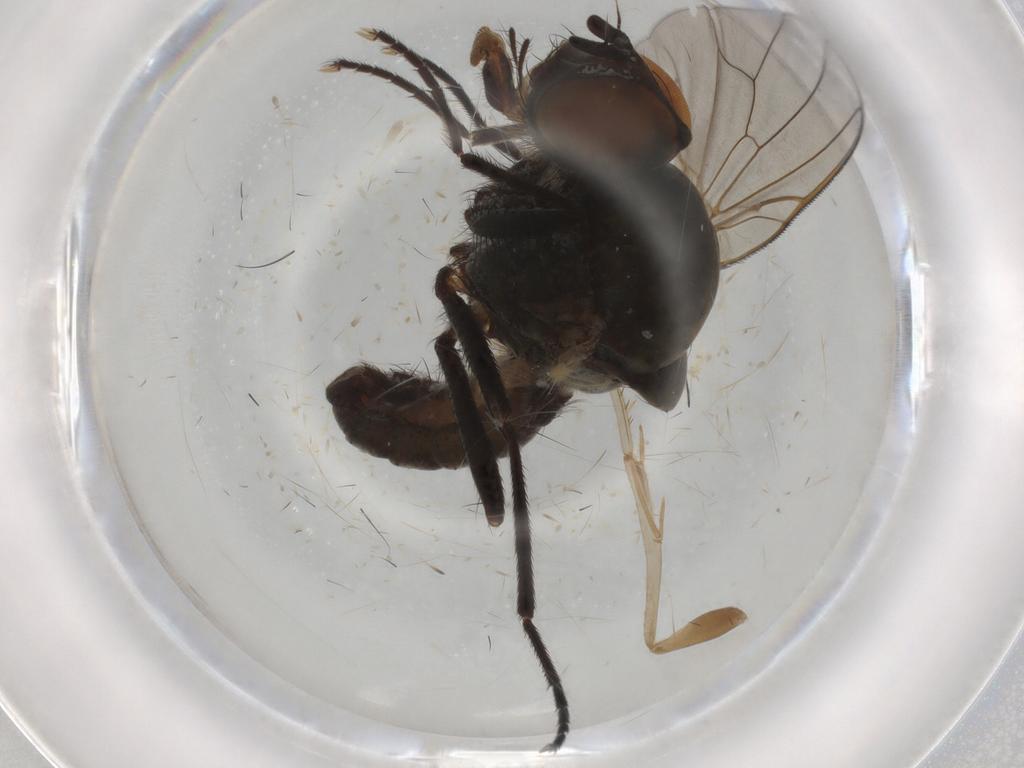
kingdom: Animalia
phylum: Arthropoda
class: Insecta
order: Diptera
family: Anthomyiidae
